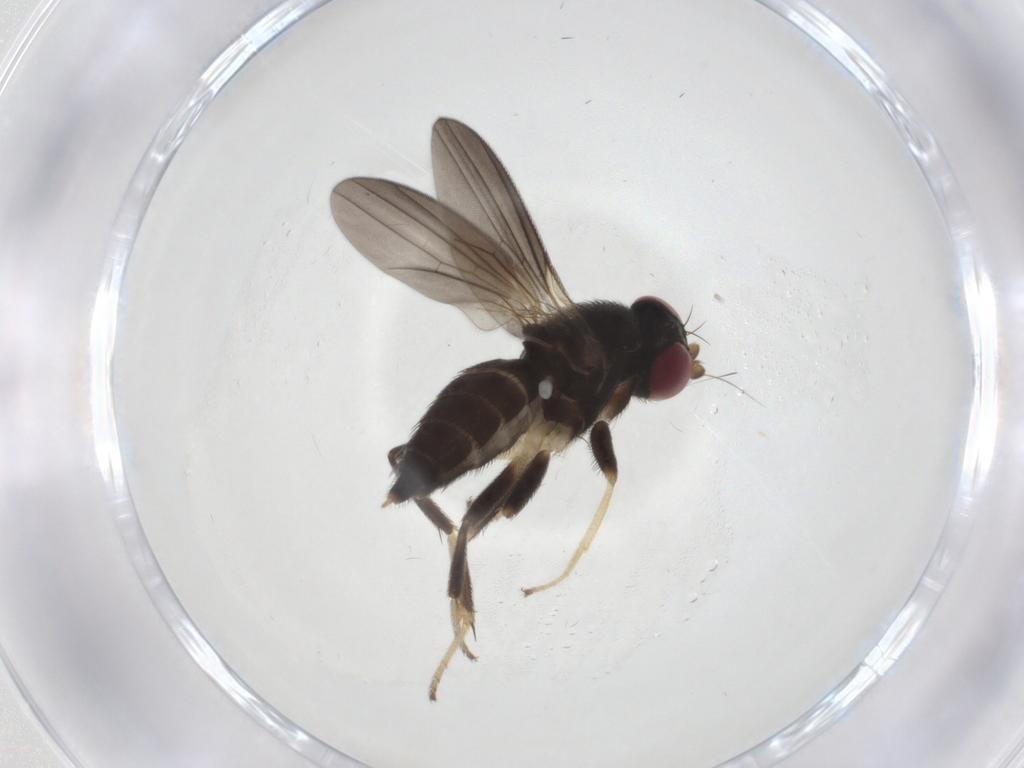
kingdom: Animalia
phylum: Arthropoda
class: Insecta
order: Diptera
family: Clusiidae
